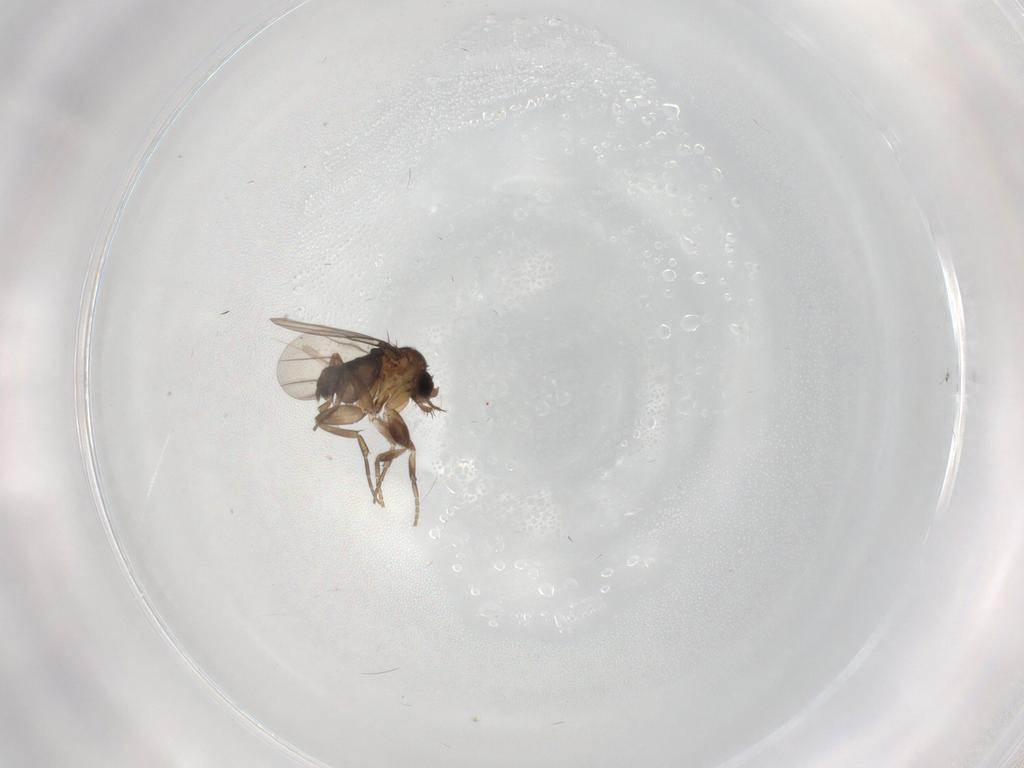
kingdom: Animalia
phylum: Arthropoda
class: Insecta
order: Diptera
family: Phoridae
